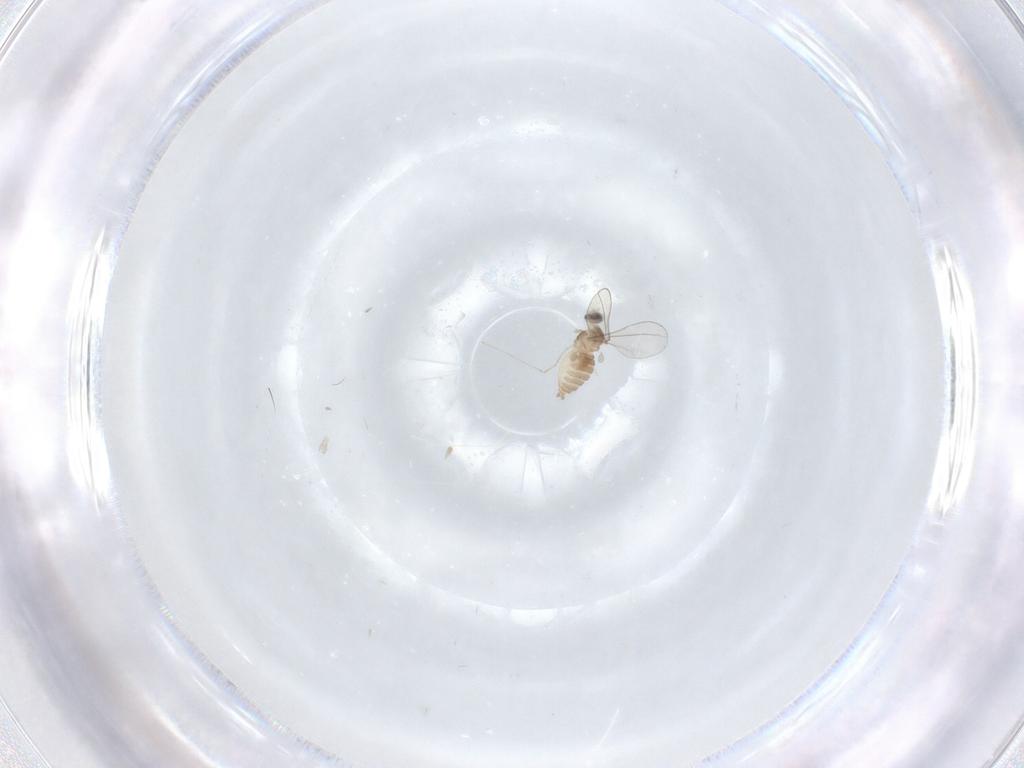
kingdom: Animalia
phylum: Arthropoda
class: Insecta
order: Diptera
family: Cecidomyiidae
